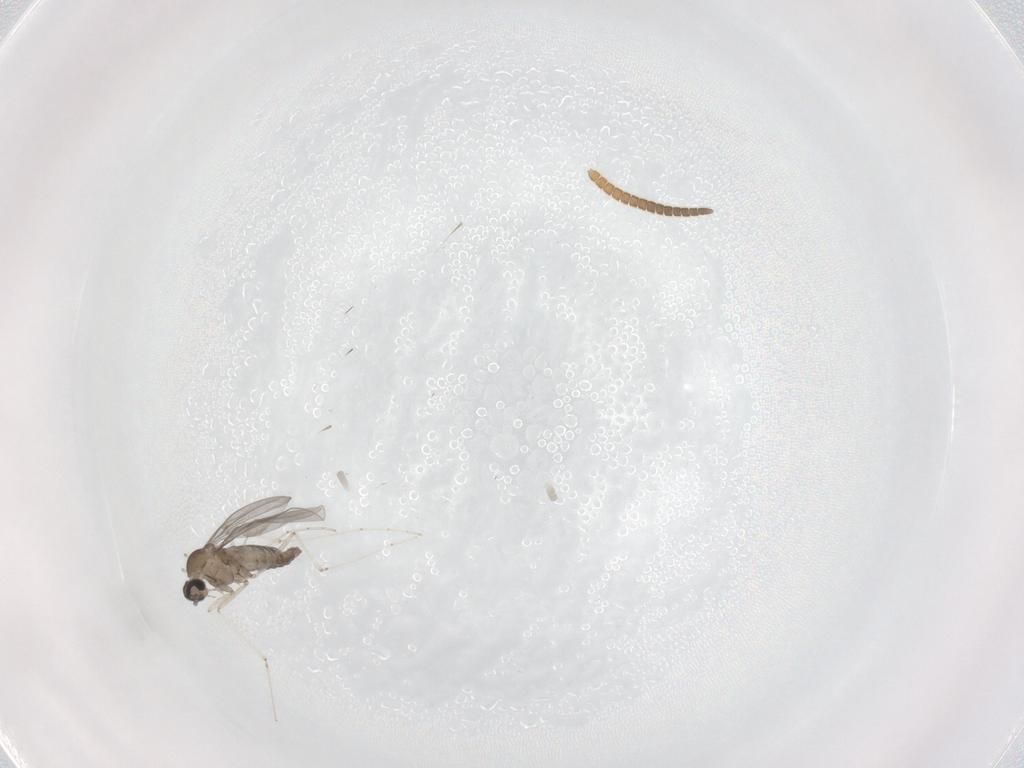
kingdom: Animalia
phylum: Arthropoda
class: Insecta
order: Diptera
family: Cecidomyiidae
